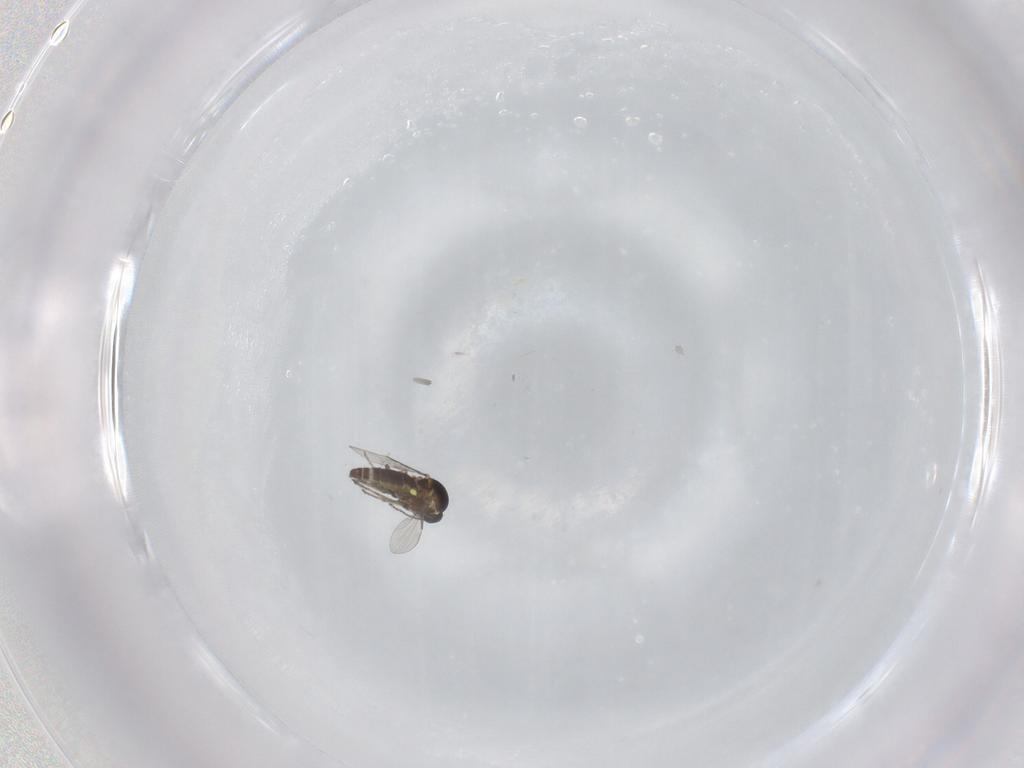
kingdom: Animalia
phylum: Arthropoda
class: Insecta
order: Diptera
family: Ceratopogonidae
